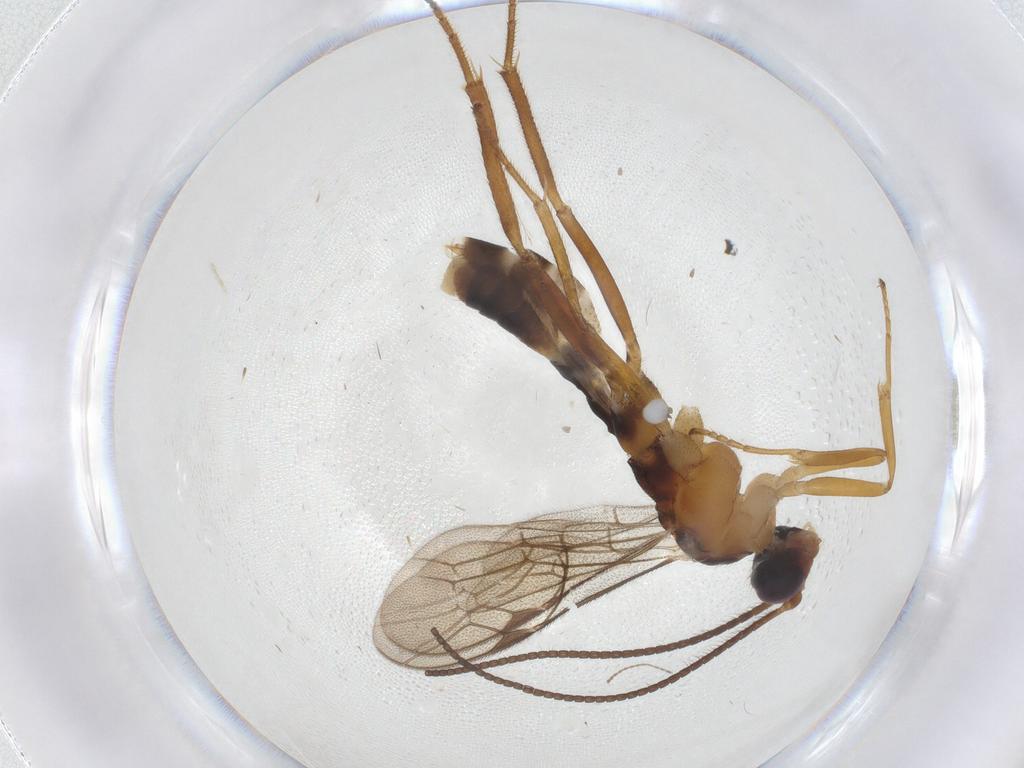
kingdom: Animalia
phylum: Arthropoda
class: Insecta
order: Hymenoptera
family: Ichneumonidae
